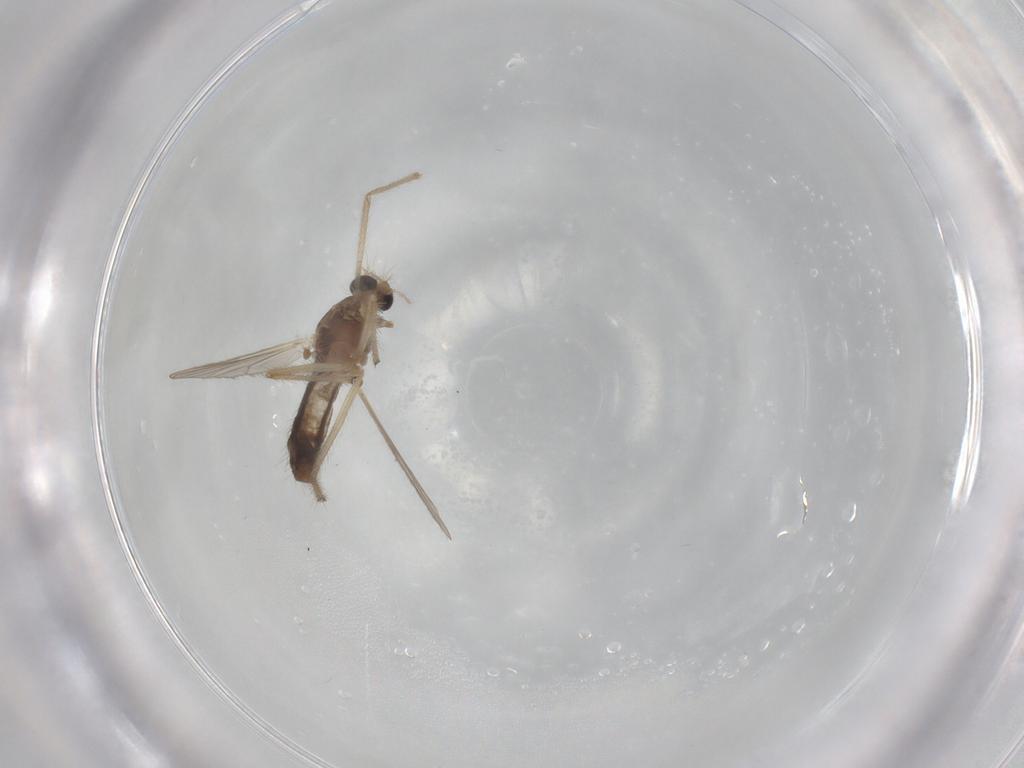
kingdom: Animalia
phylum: Arthropoda
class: Insecta
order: Diptera
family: Chironomidae
